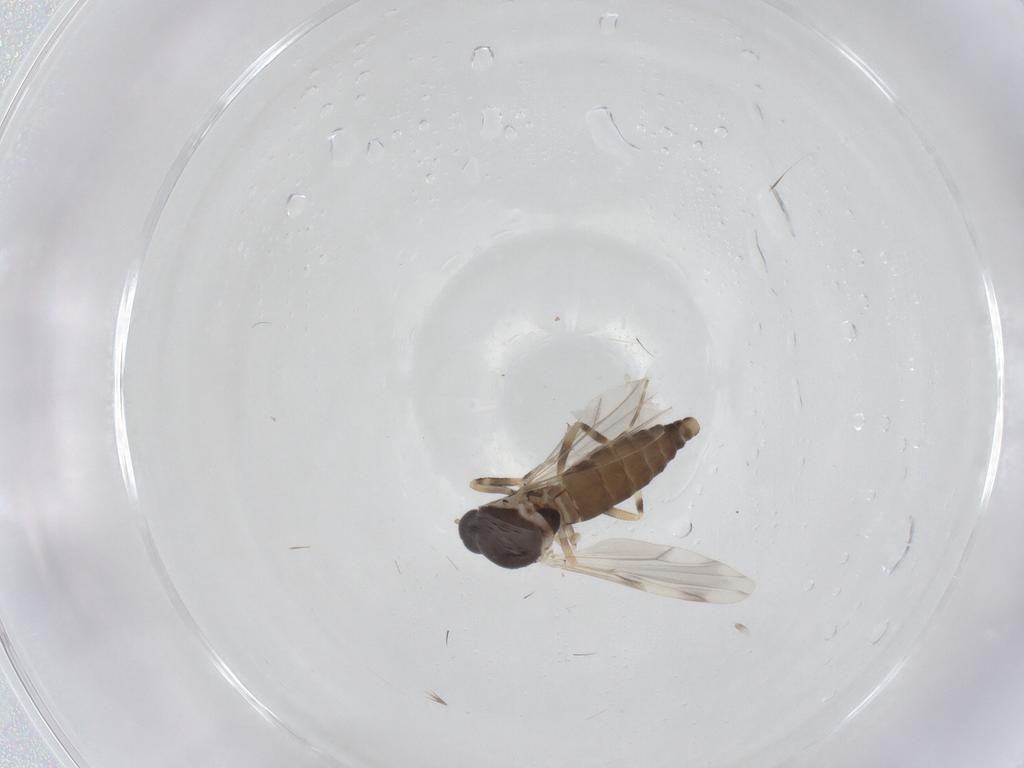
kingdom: Animalia
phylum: Arthropoda
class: Insecta
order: Diptera
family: Ceratopogonidae
